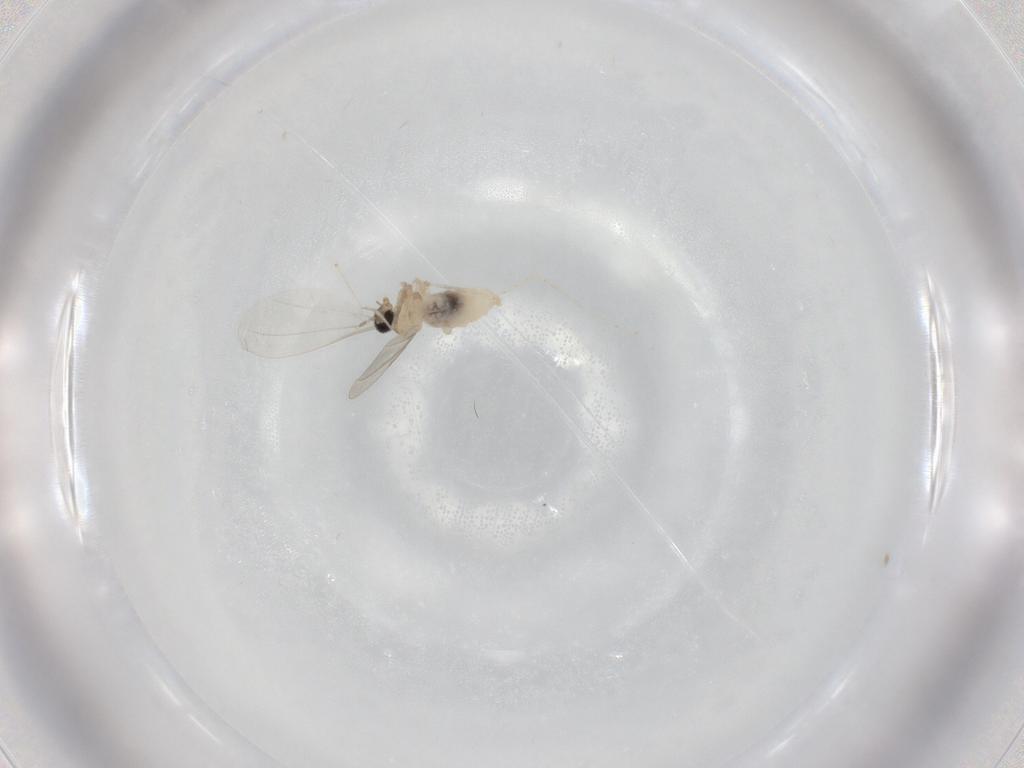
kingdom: Animalia
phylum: Arthropoda
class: Insecta
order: Diptera
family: Cecidomyiidae
